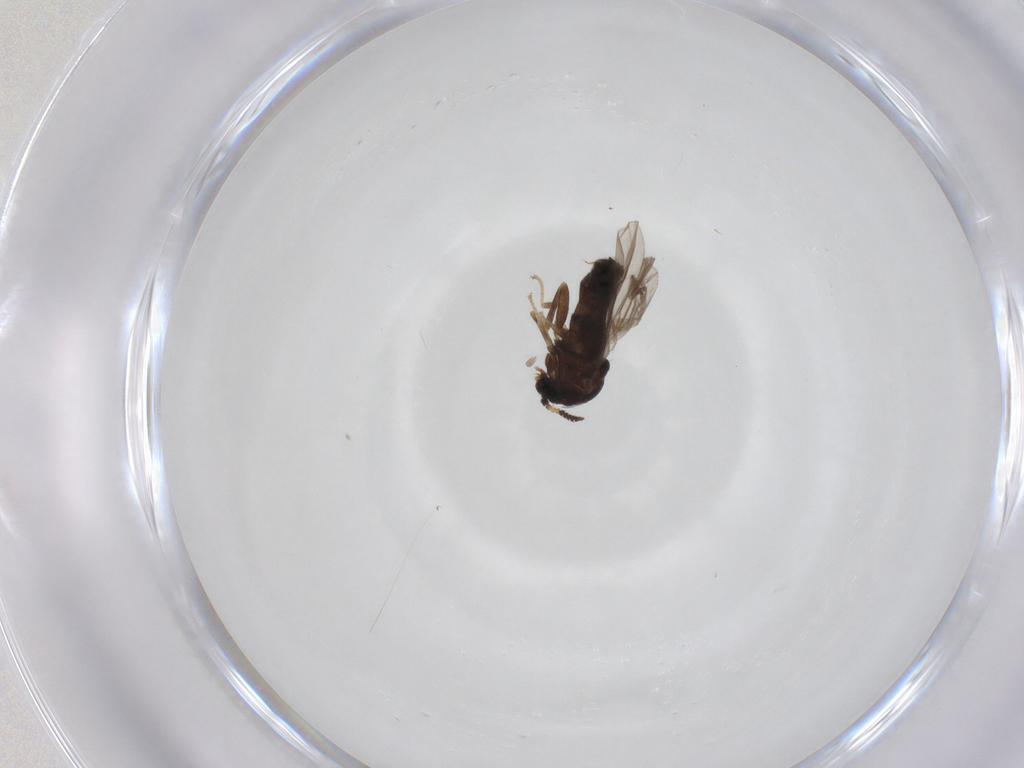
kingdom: Animalia
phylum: Arthropoda
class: Insecta
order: Diptera
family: Hybotidae
